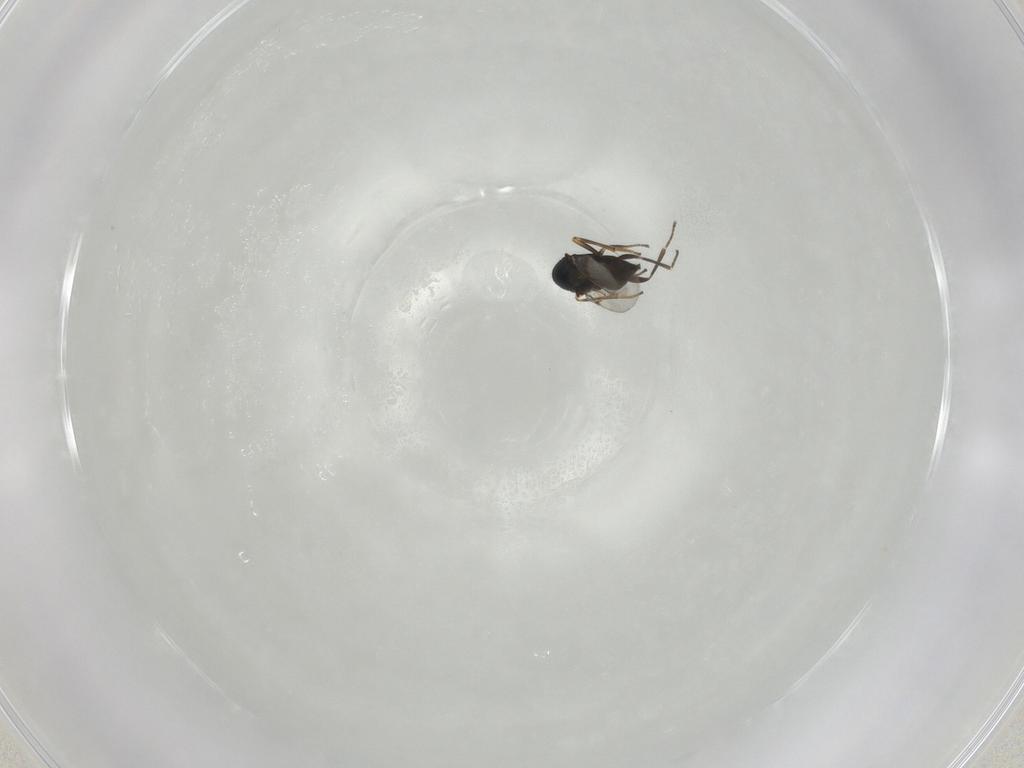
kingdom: Animalia
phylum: Arthropoda
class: Insecta
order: Hymenoptera
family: Encyrtidae
